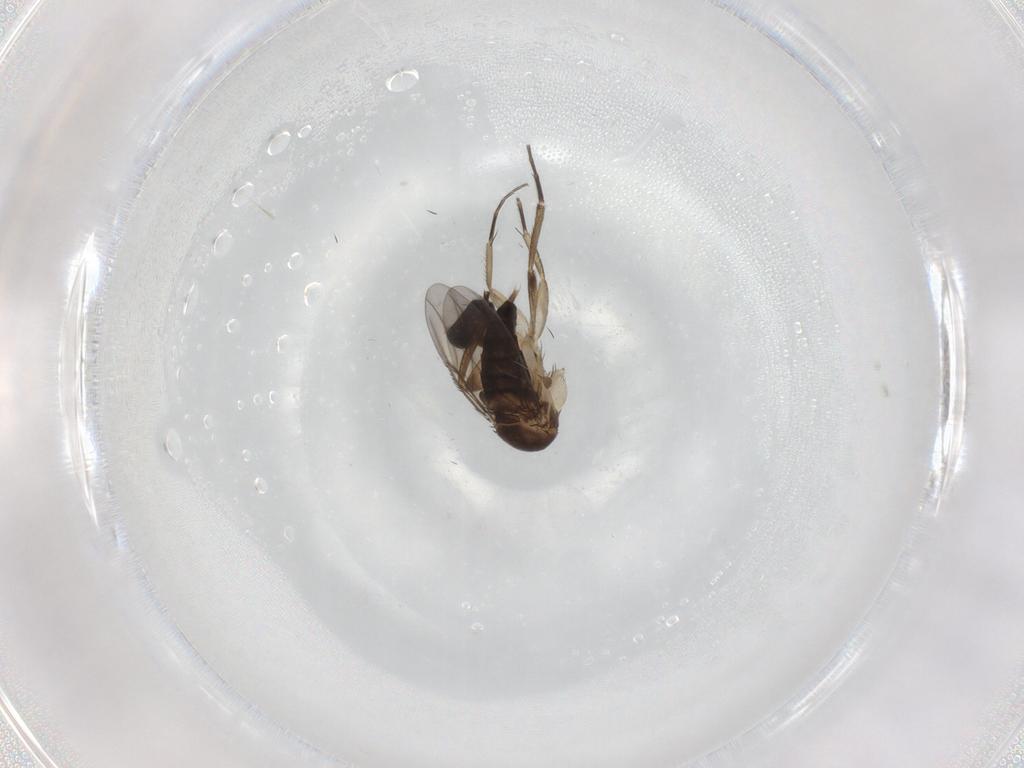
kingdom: Animalia
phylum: Arthropoda
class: Insecta
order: Diptera
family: Phoridae
